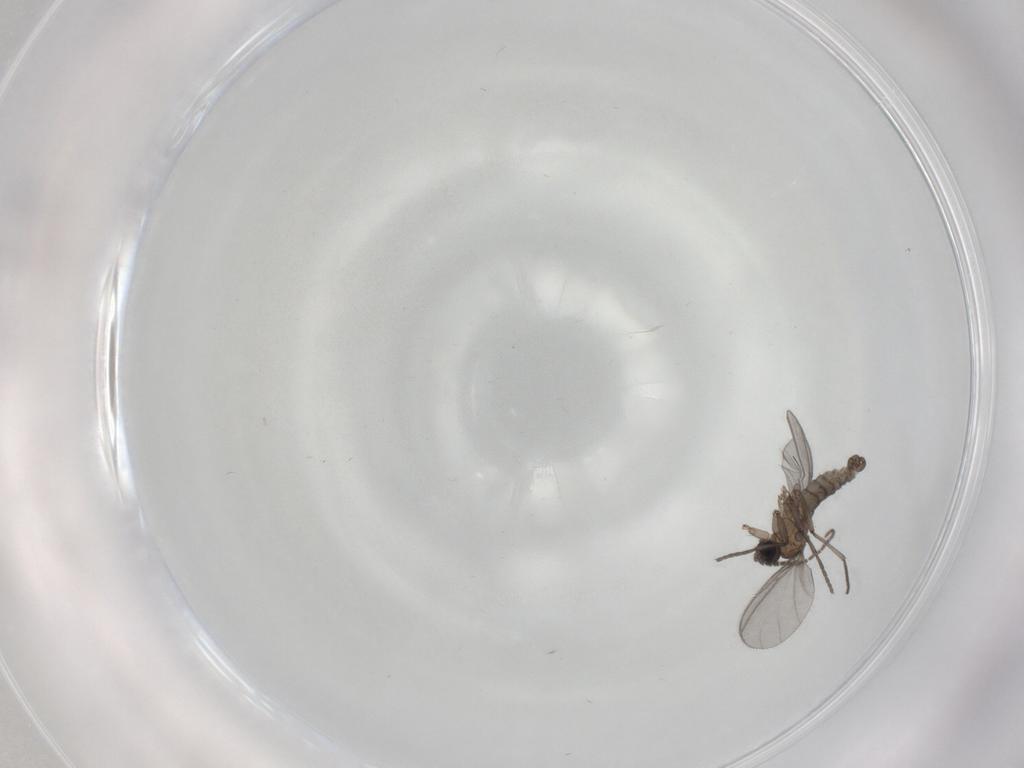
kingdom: Animalia
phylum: Arthropoda
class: Insecta
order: Diptera
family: Sciaridae
